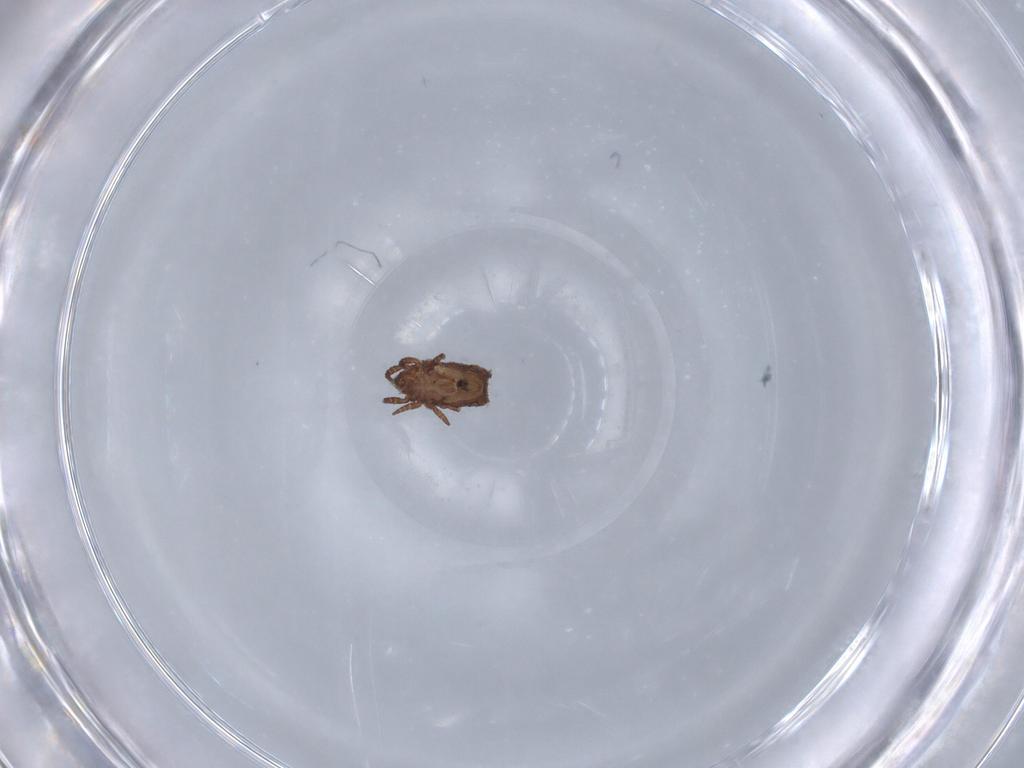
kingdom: Animalia
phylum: Arthropoda
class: Arachnida
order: Sarcoptiformes
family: Crotoniidae
